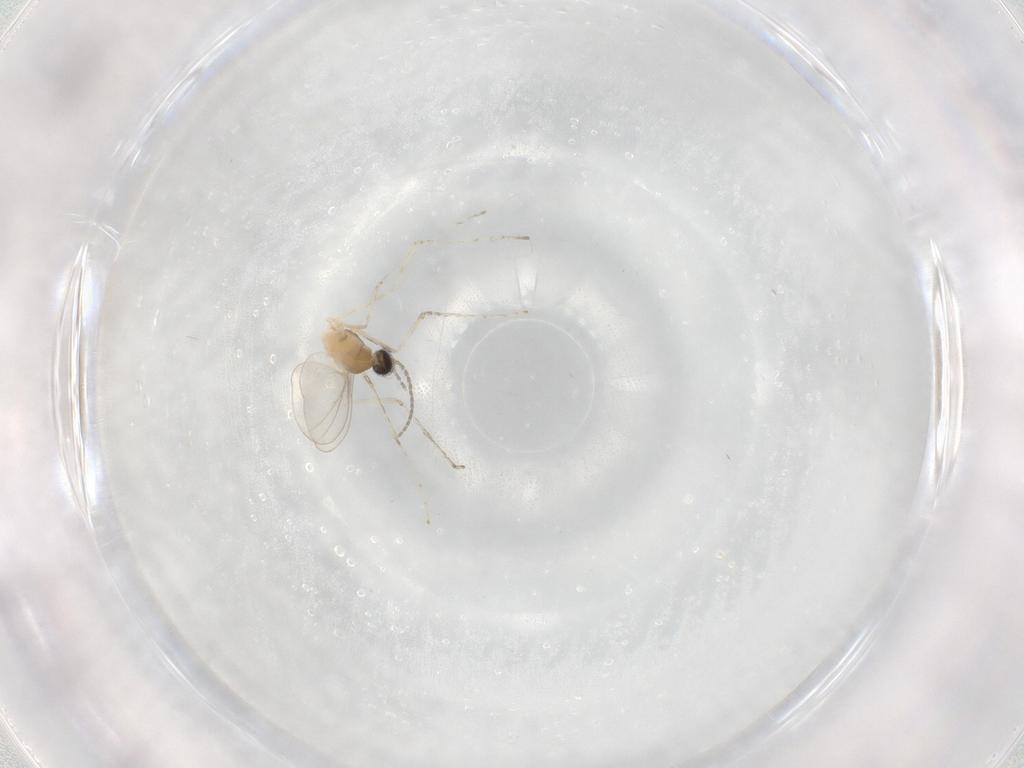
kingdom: Animalia
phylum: Arthropoda
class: Insecta
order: Diptera
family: Cecidomyiidae
